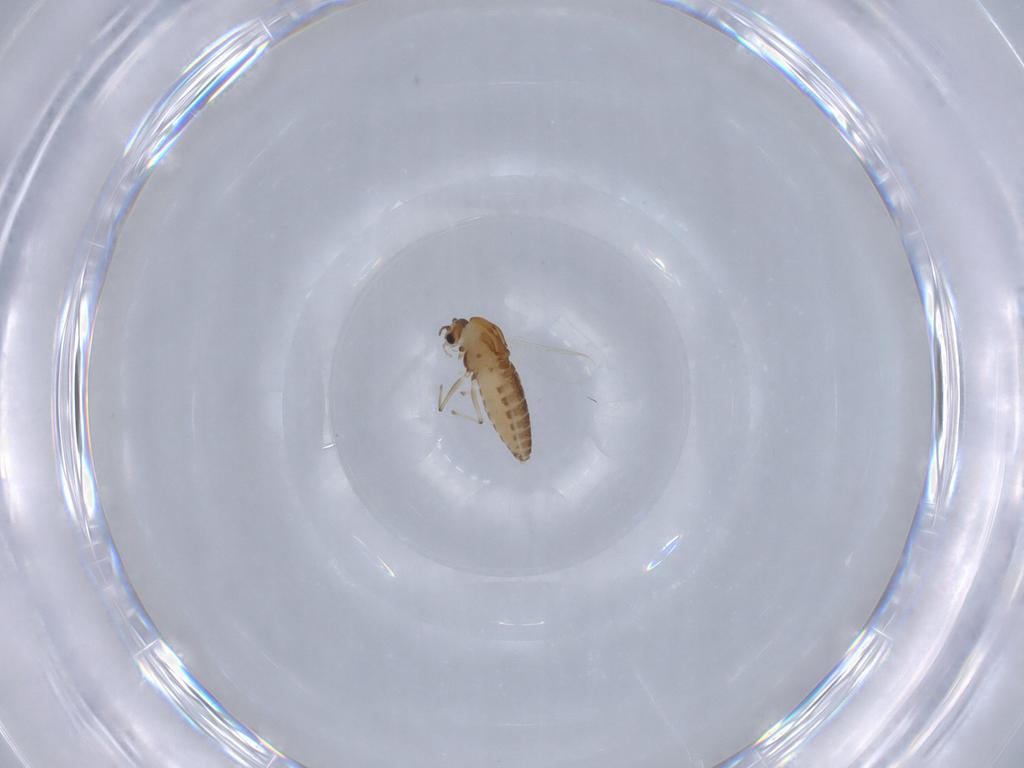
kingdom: Animalia
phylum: Arthropoda
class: Insecta
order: Diptera
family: Chironomidae
